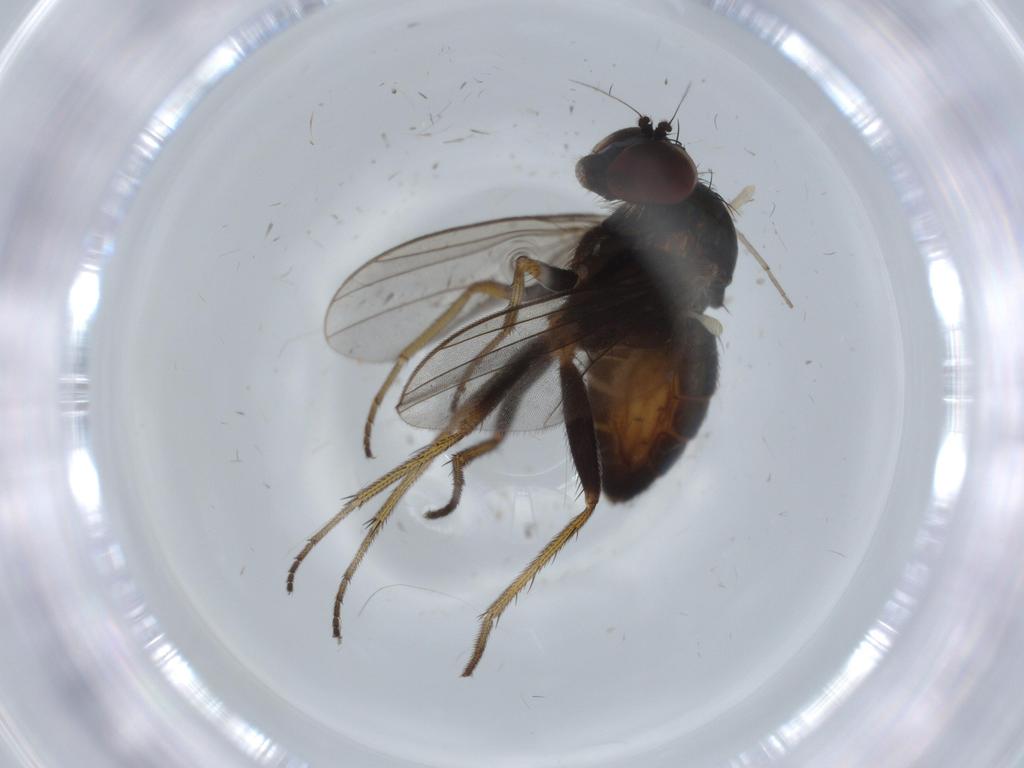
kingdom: Animalia
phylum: Arthropoda
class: Insecta
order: Diptera
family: Chironomidae
